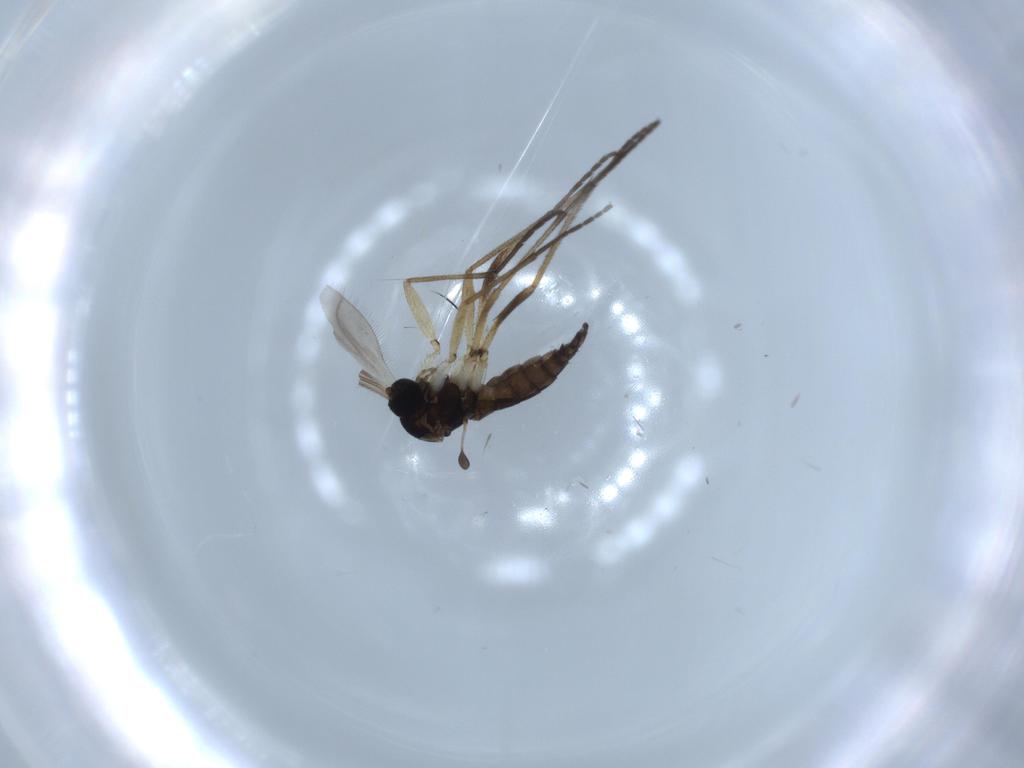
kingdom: Animalia
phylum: Arthropoda
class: Insecta
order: Diptera
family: Sciaridae
